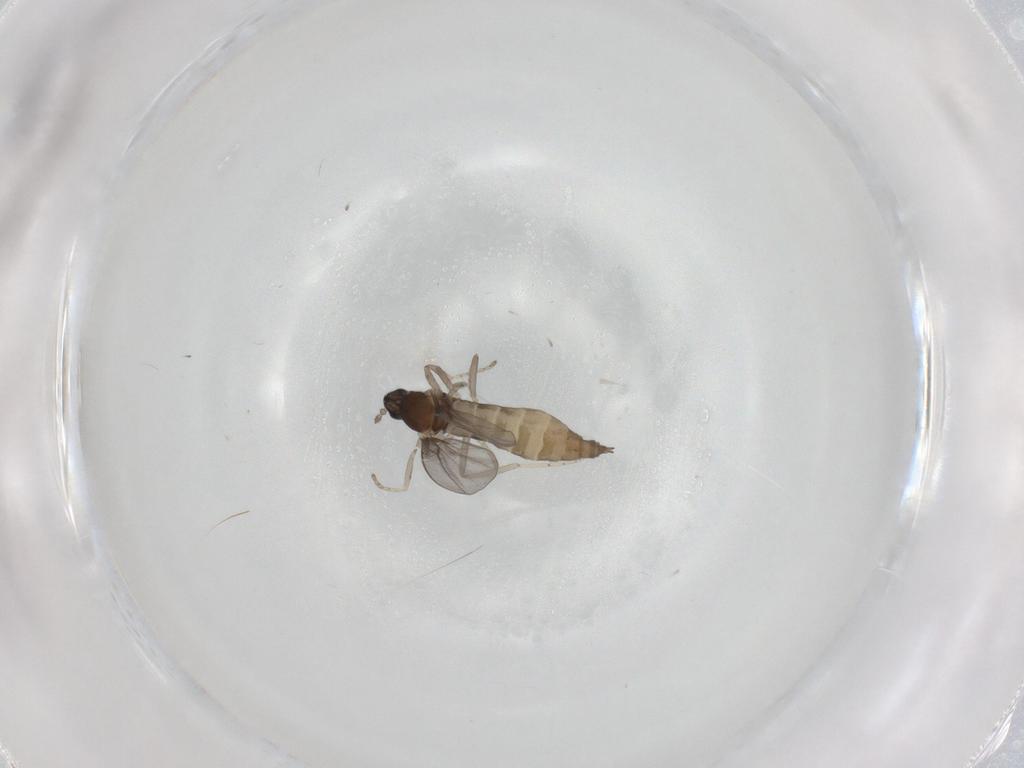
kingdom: Animalia
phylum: Arthropoda
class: Insecta
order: Diptera
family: Cecidomyiidae
